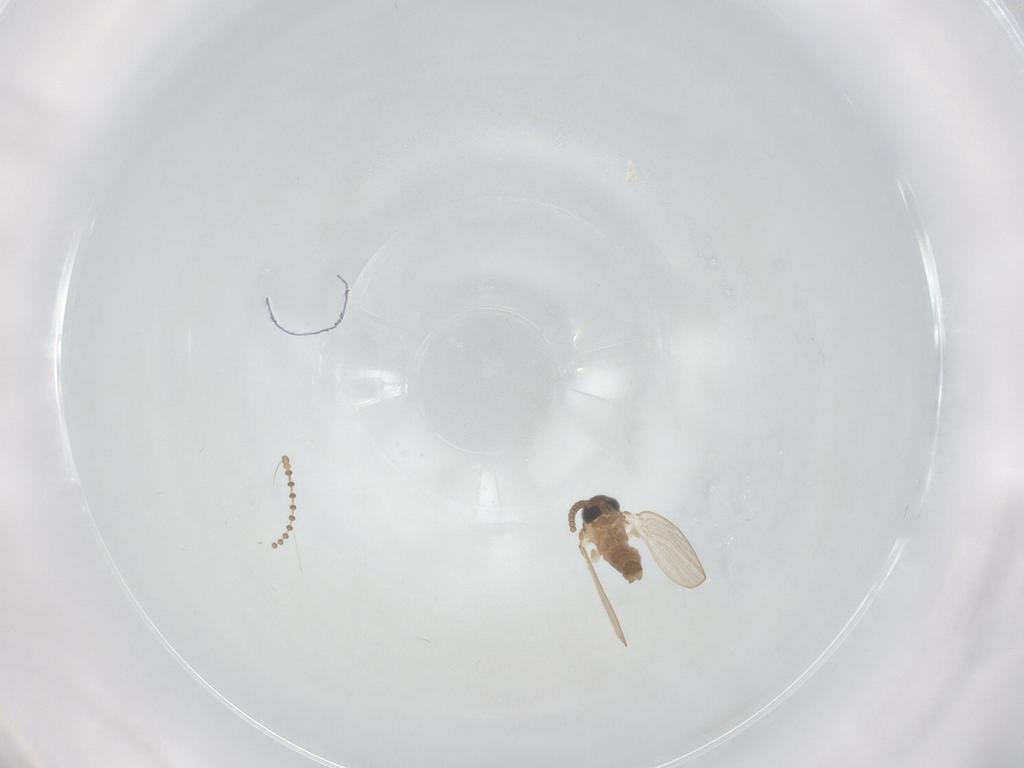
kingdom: Animalia
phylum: Arthropoda
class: Insecta
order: Diptera
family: Ceratopogonidae
